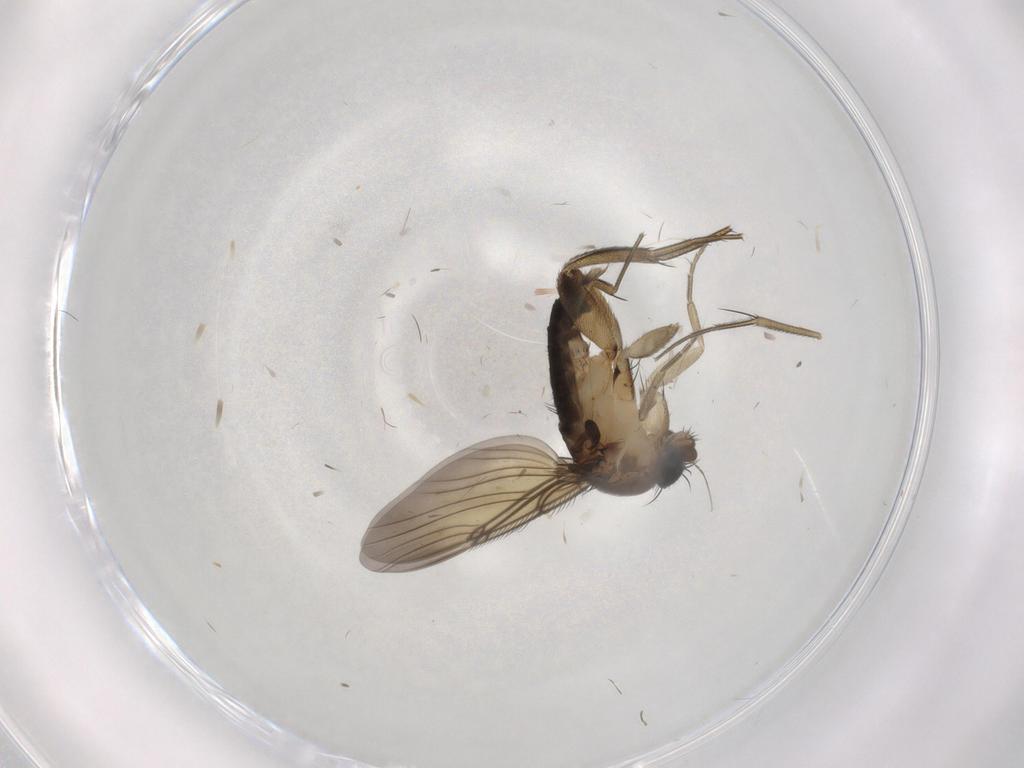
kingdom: Animalia
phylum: Arthropoda
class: Insecta
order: Diptera
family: Phoridae
